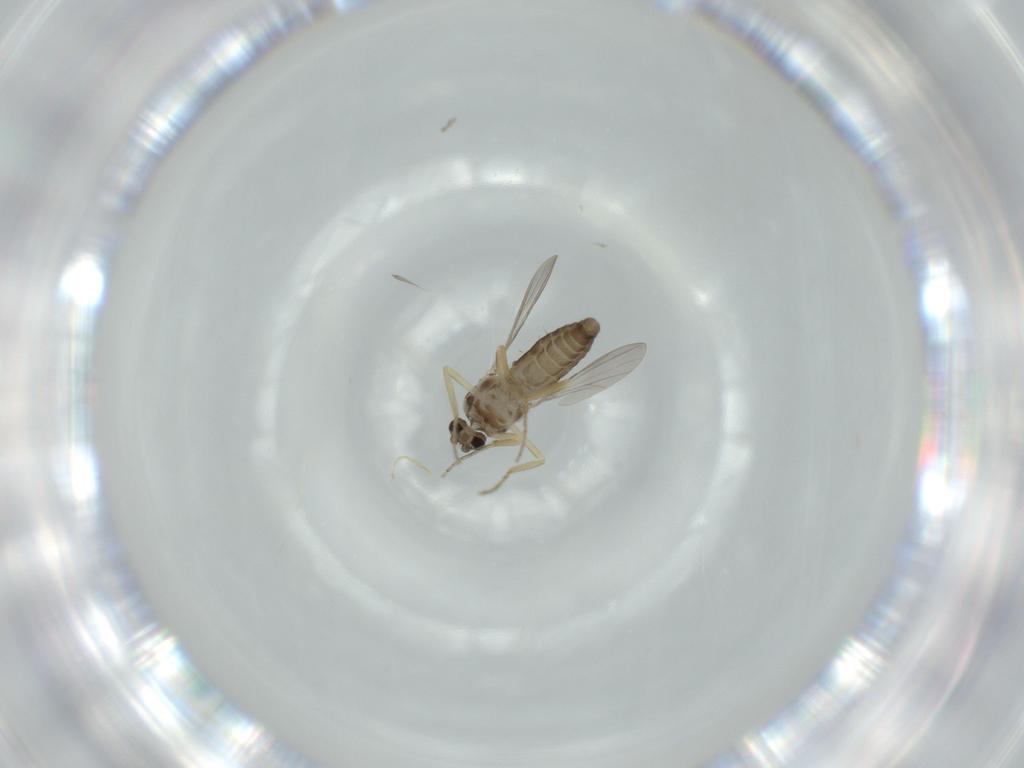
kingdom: Animalia
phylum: Arthropoda
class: Insecta
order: Diptera
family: Ceratopogonidae
